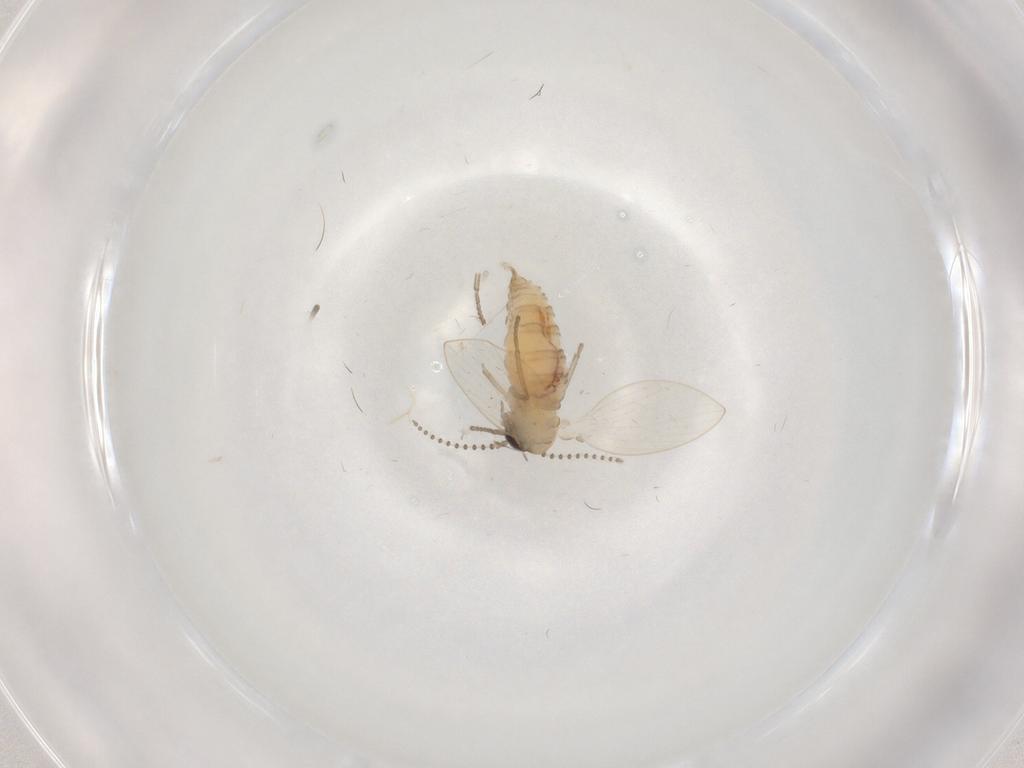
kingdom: Animalia
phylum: Arthropoda
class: Insecta
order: Diptera
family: Psychodidae
